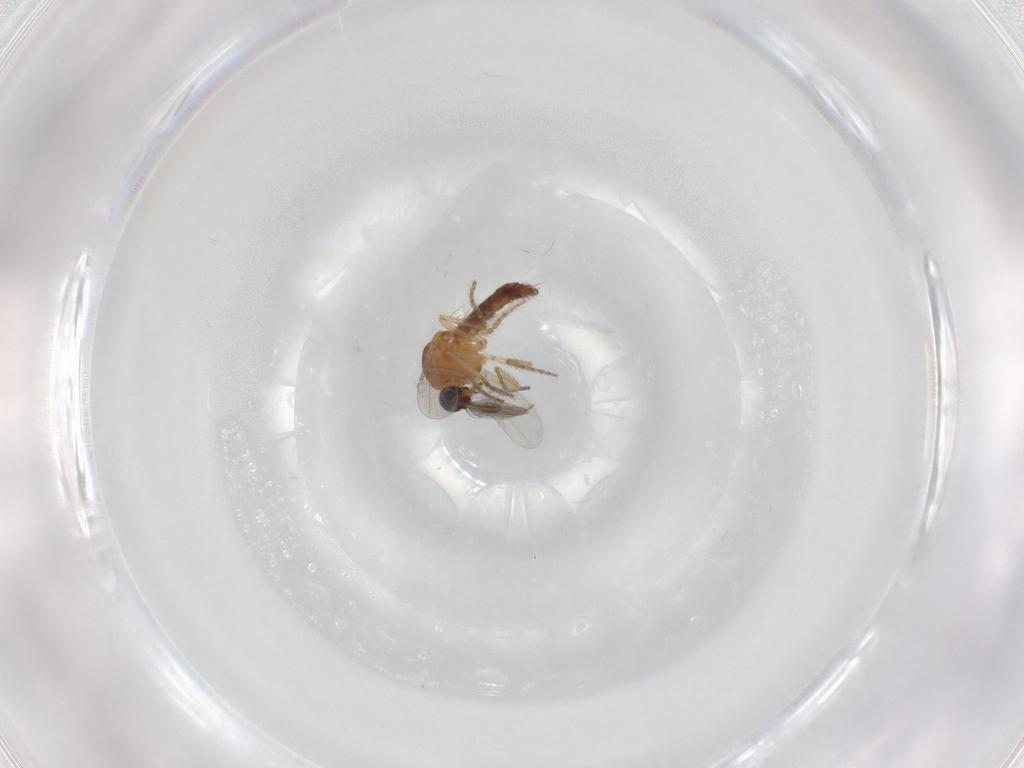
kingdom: Animalia
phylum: Arthropoda
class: Insecta
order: Diptera
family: Ceratopogonidae
